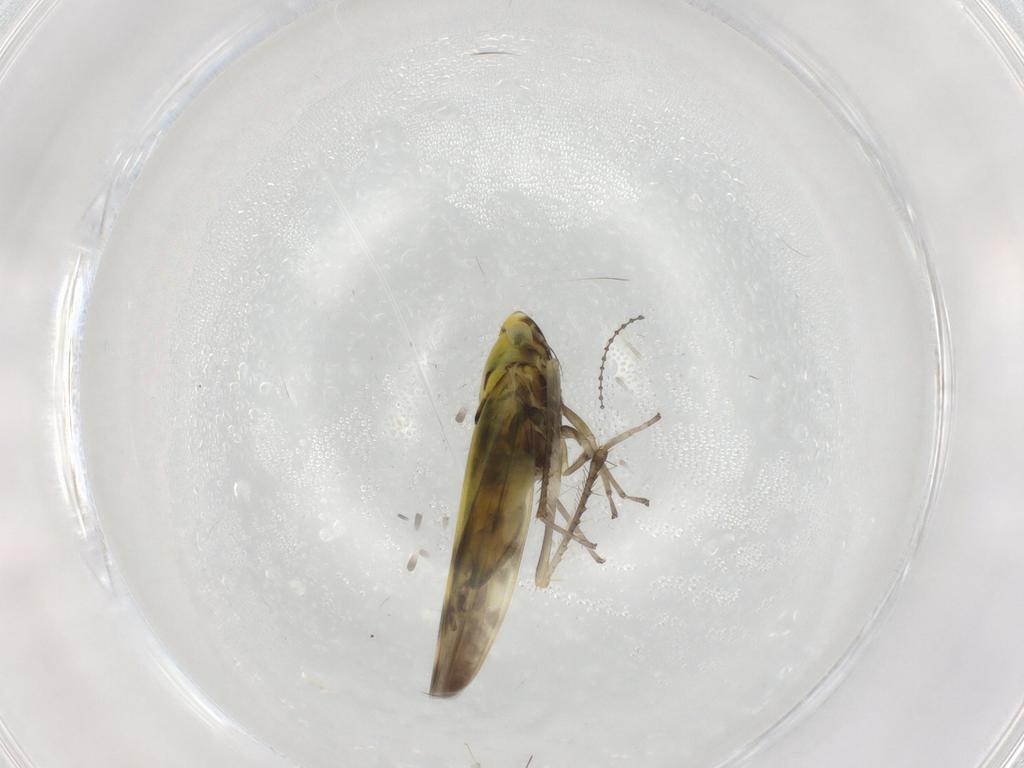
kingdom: Animalia
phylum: Arthropoda
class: Insecta
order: Hemiptera
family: Cicadellidae
